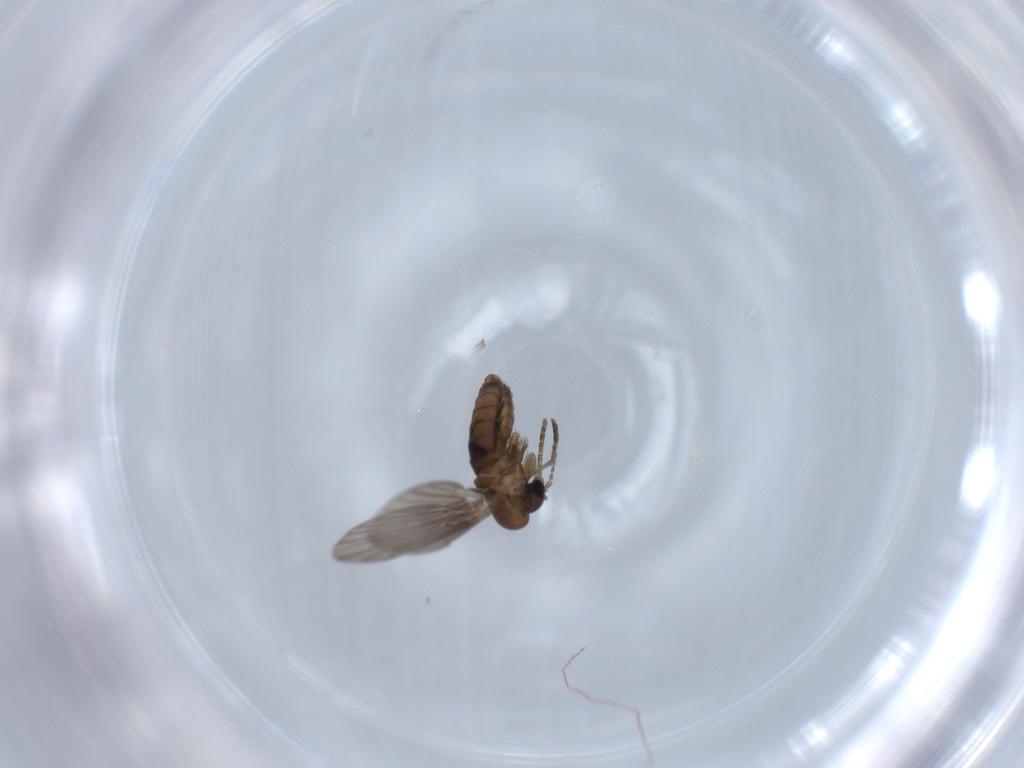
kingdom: Animalia
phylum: Arthropoda
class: Insecta
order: Diptera
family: Psychodidae
